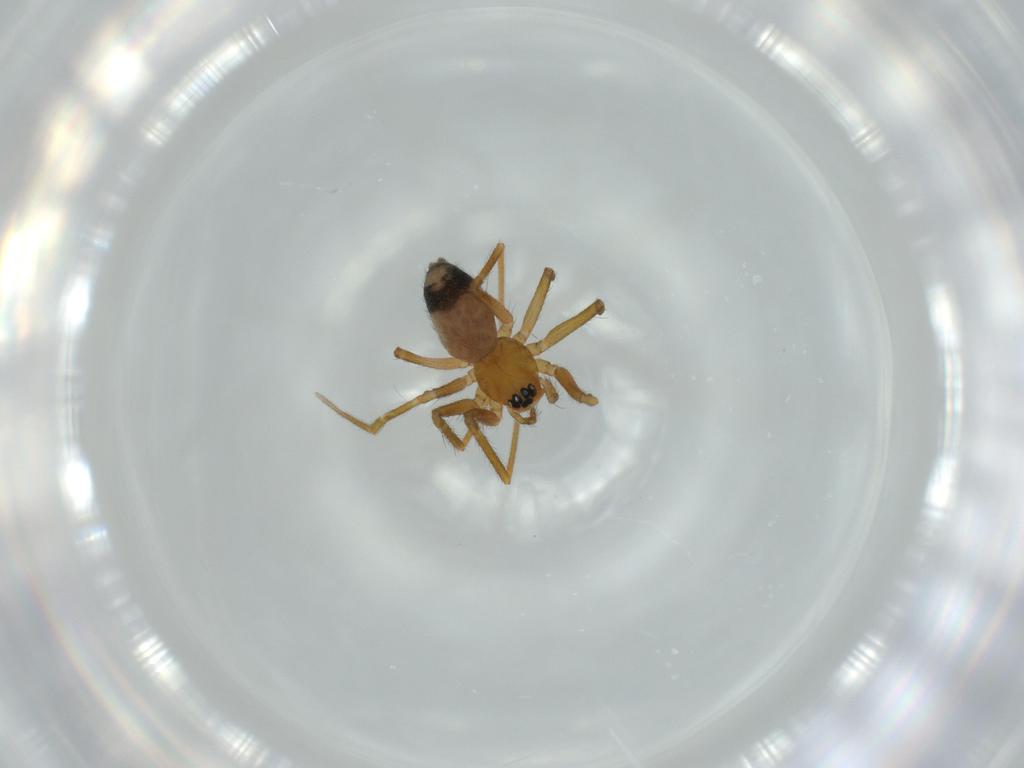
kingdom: Animalia
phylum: Arthropoda
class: Arachnida
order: Araneae
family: Linyphiidae
